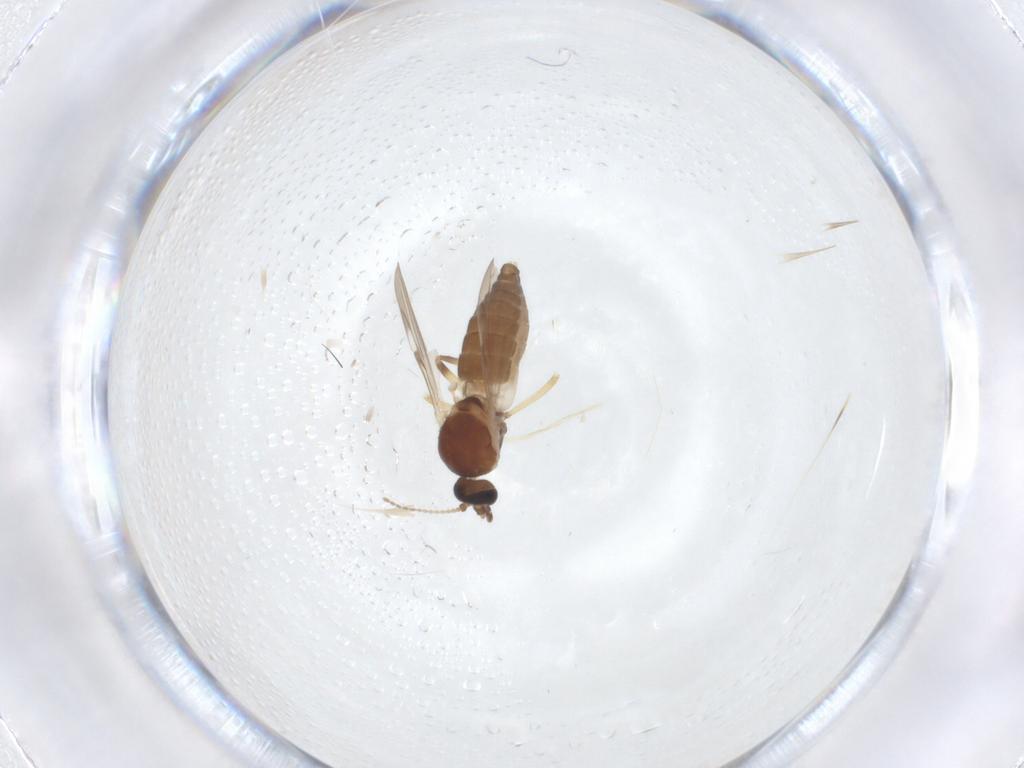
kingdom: Animalia
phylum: Arthropoda
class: Insecta
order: Diptera
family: Ceratopogonidae
